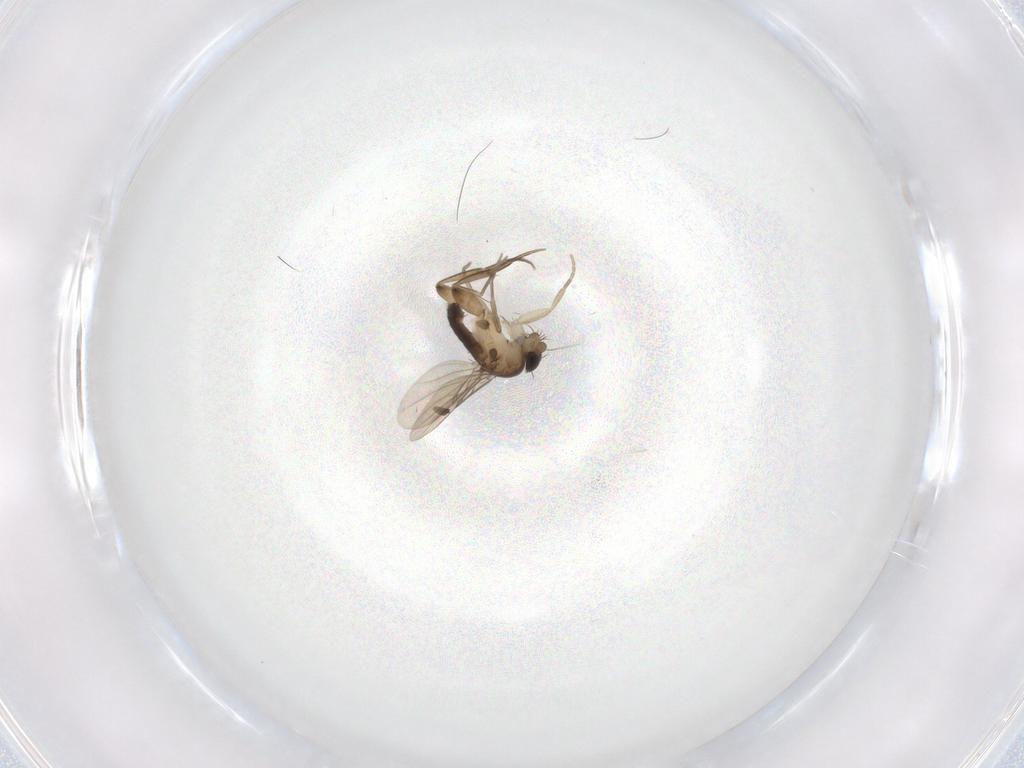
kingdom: Animalia
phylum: Arthropoda
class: Insecta
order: Diptera
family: Phoridae
